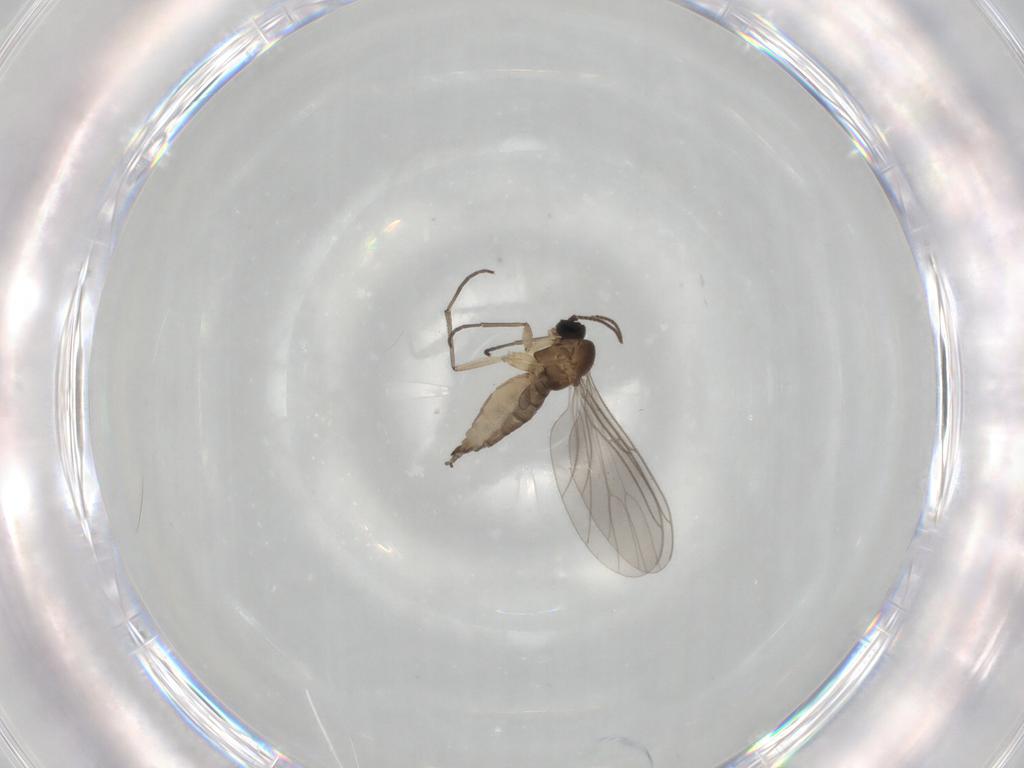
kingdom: Animalia
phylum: Arthropoda
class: Insecta
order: Diptera
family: Sciaridae
